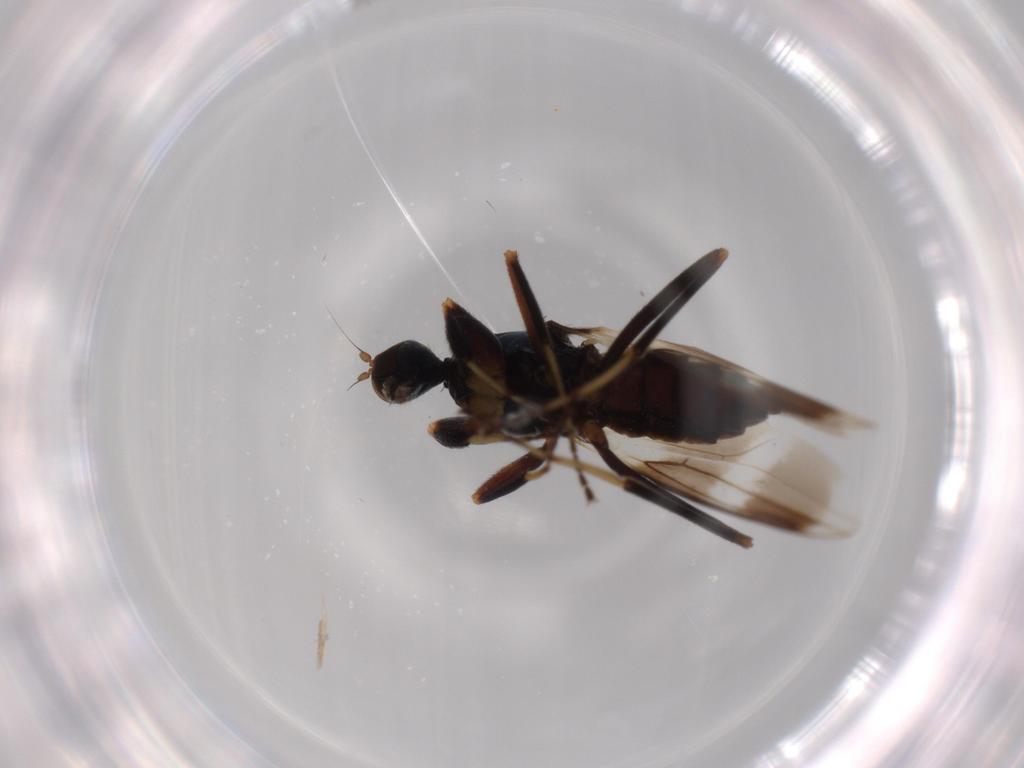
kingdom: Animalia
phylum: Arthropoda
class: Insecta
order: Diptera
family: Hybotidae
